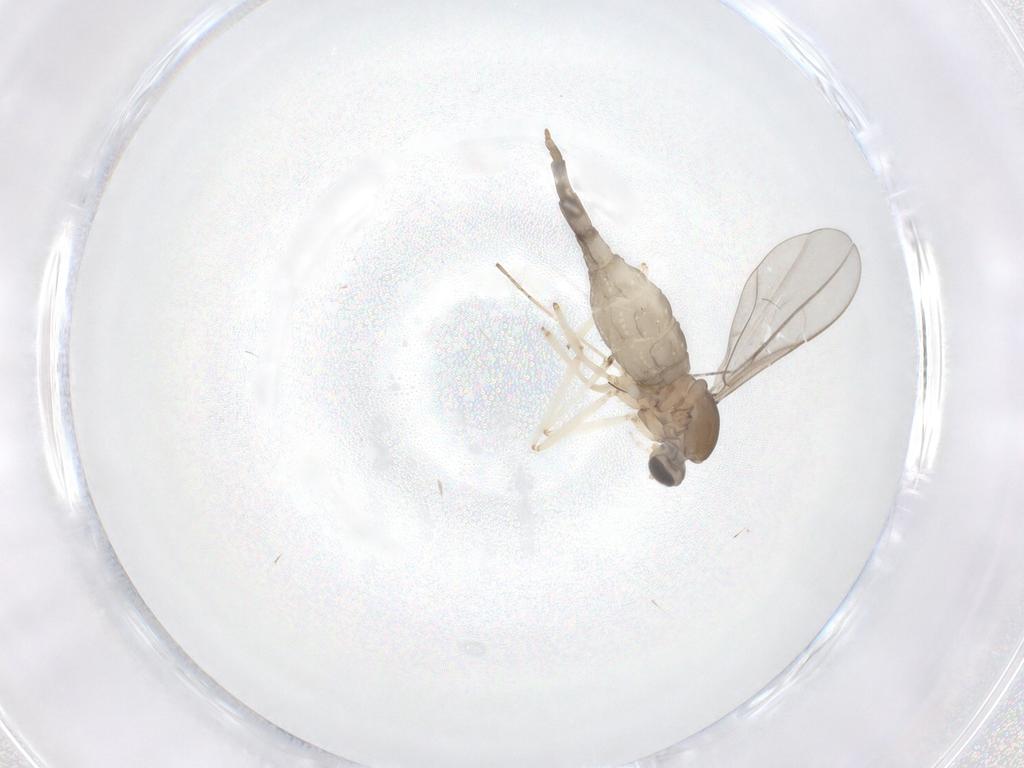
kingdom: Animalia
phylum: Arthropoda
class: Insecta
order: Diptera
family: Cecidomyiidae
